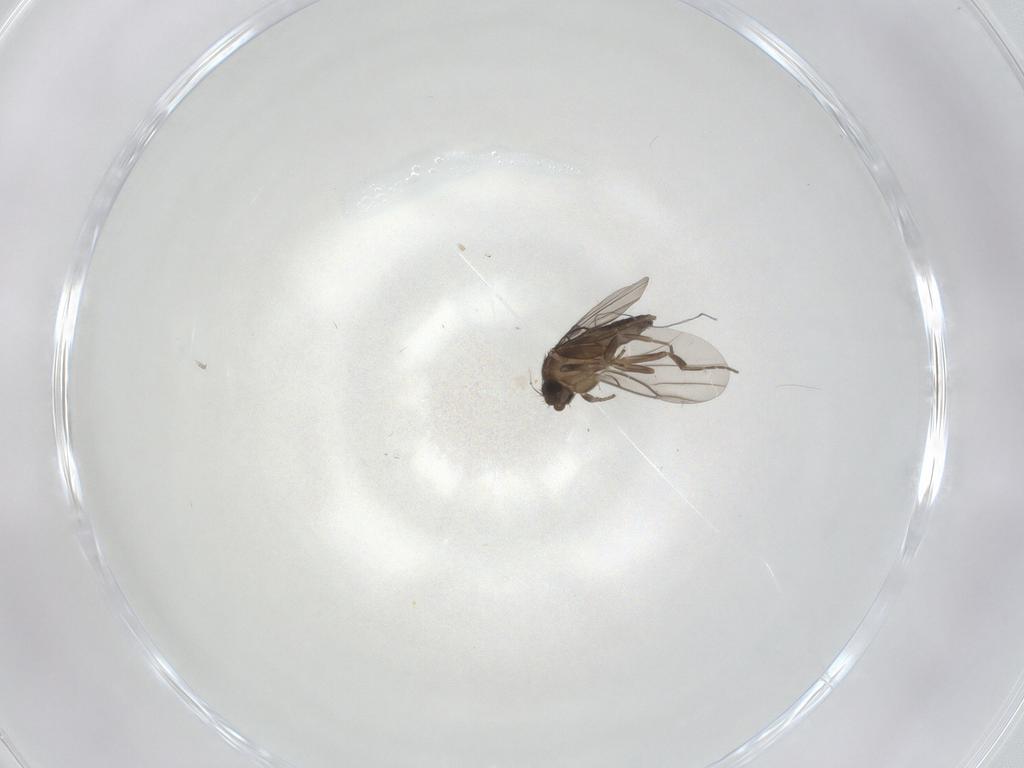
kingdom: Animalia
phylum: Arthropoda
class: Insecta
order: Diptera
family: Phoridae
